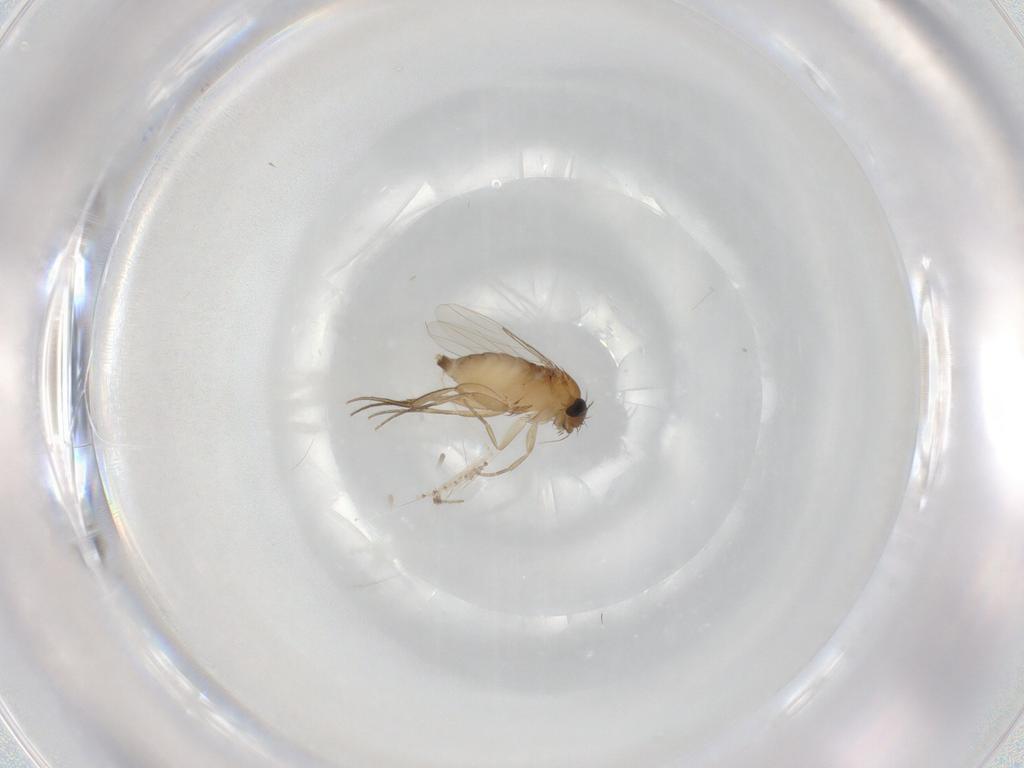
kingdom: Animalia
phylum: Arthropoda
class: Insecta
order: Diptera
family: Phoridae
